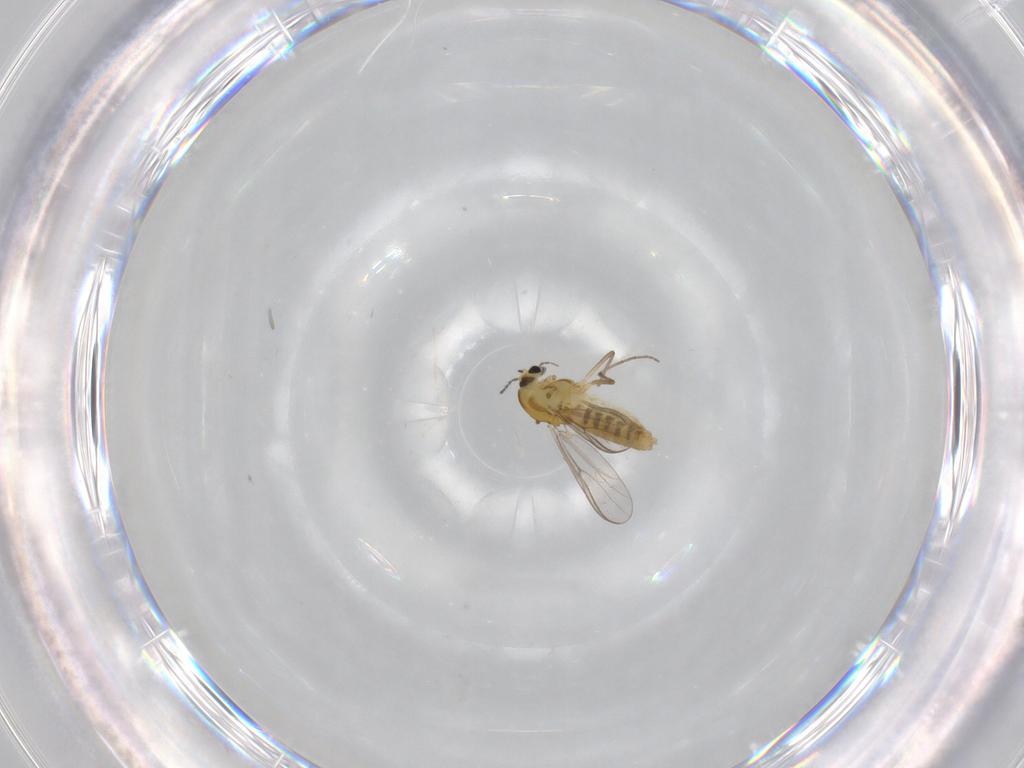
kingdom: Animalia
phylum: Arthropoda
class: Insecta
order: Diptera
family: Chironomidae
